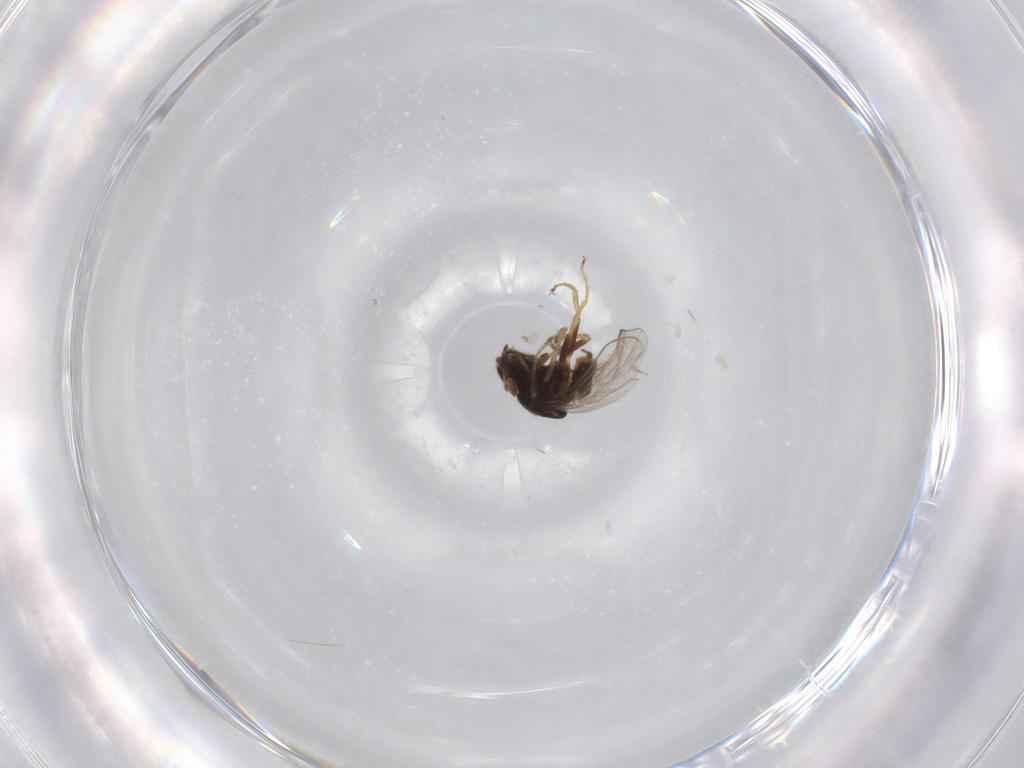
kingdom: Animalia
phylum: Arthropoda
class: Insecta
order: Diptera
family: Chloropidae
